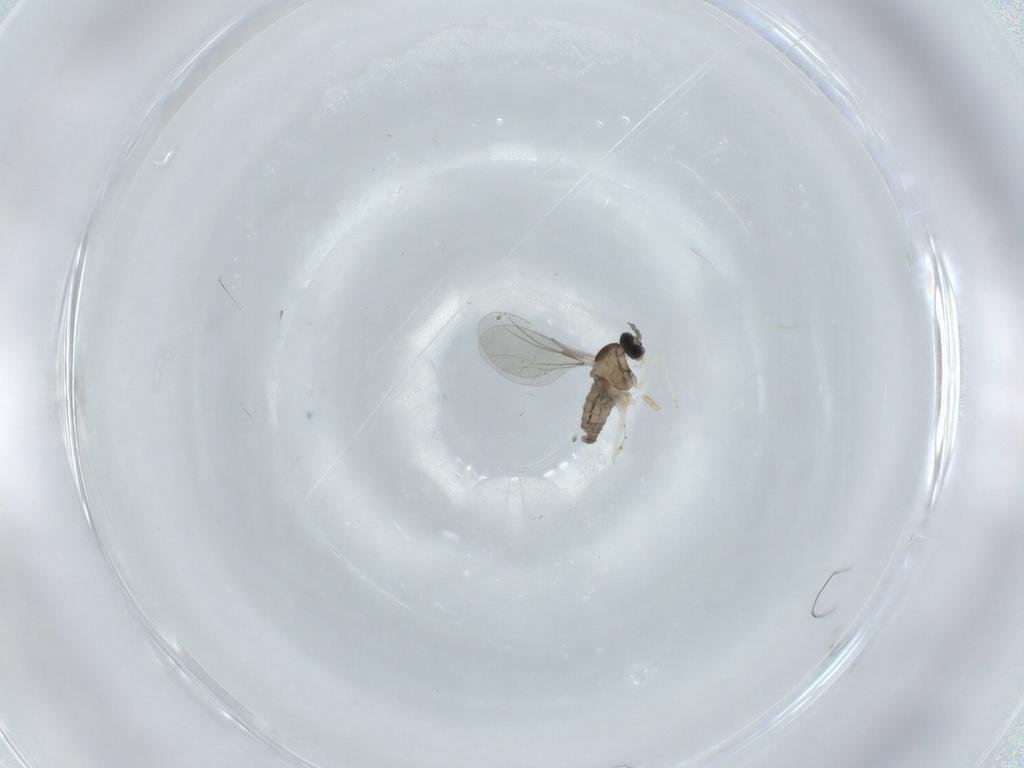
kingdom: Animalia
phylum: Arthropoda
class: Insecta
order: Diptera
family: Cecidomyiidae
